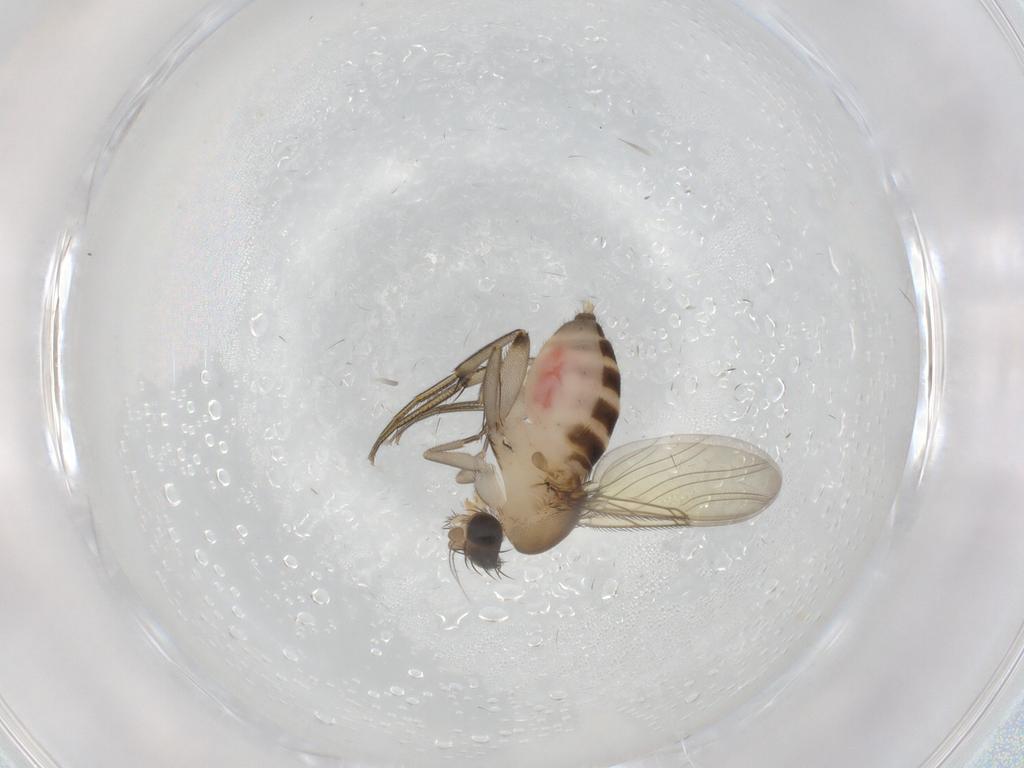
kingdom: Animalia
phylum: Arthropoda
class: Insecta
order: Diptera
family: Phoridae
